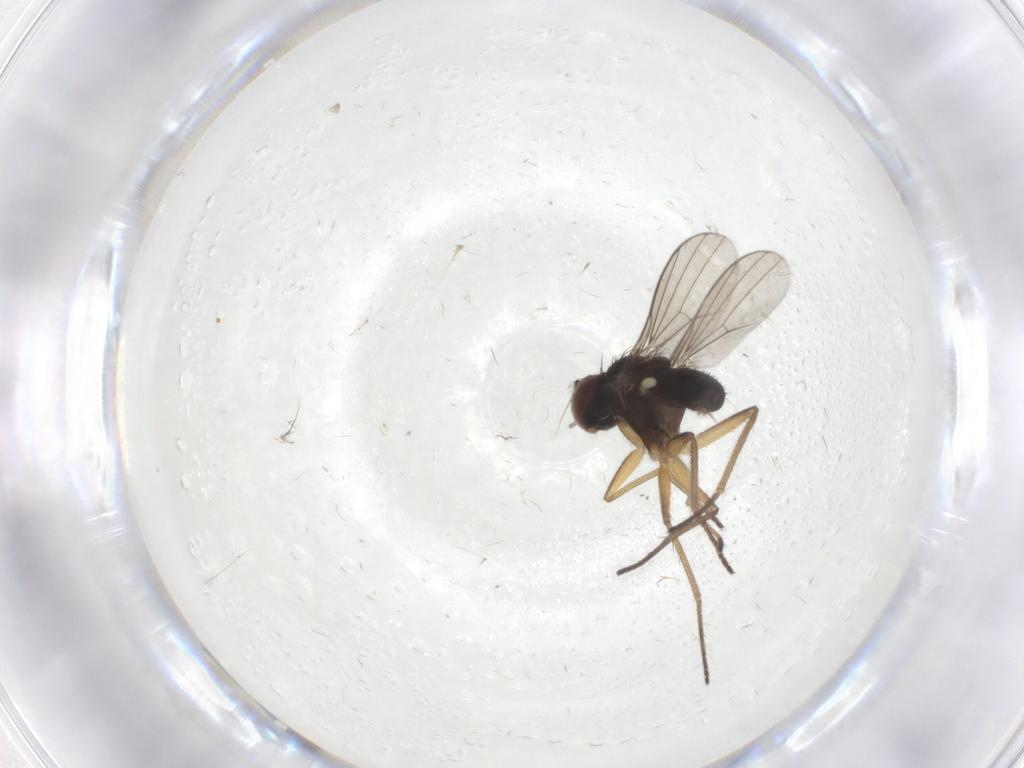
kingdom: Animalia
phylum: Arthropoda
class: Insecta
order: Diptera
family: Dolichopodidae
